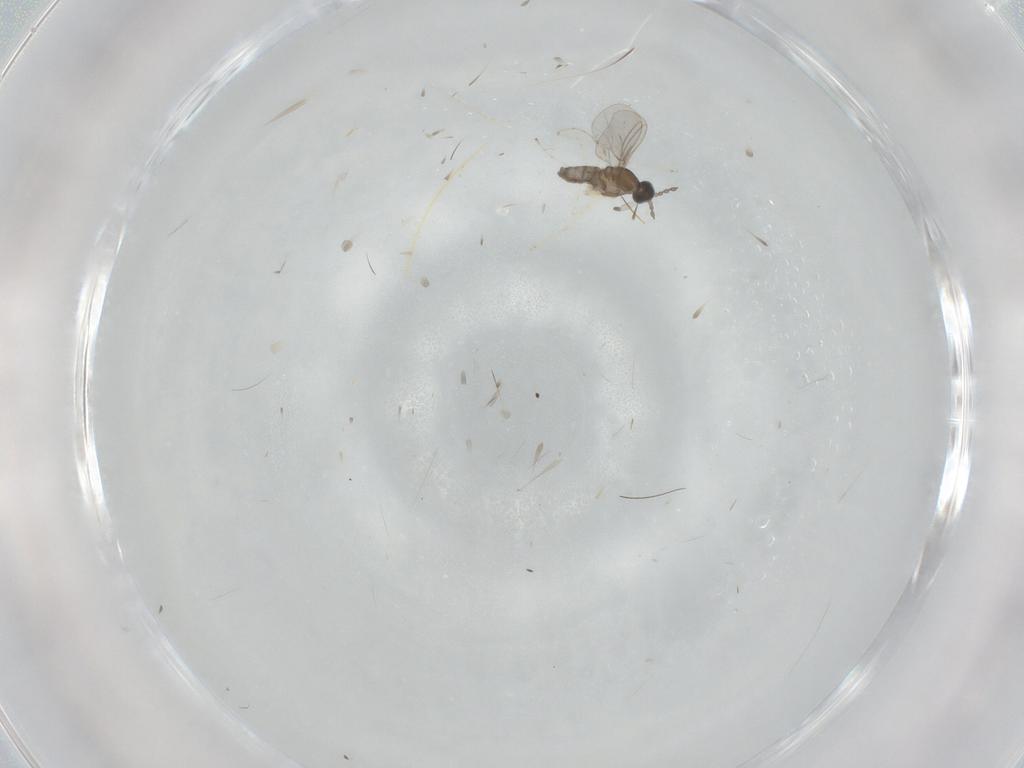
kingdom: Animalia
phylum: Arthropoda
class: Insecta
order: Diptera
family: Cecidomyiidae
